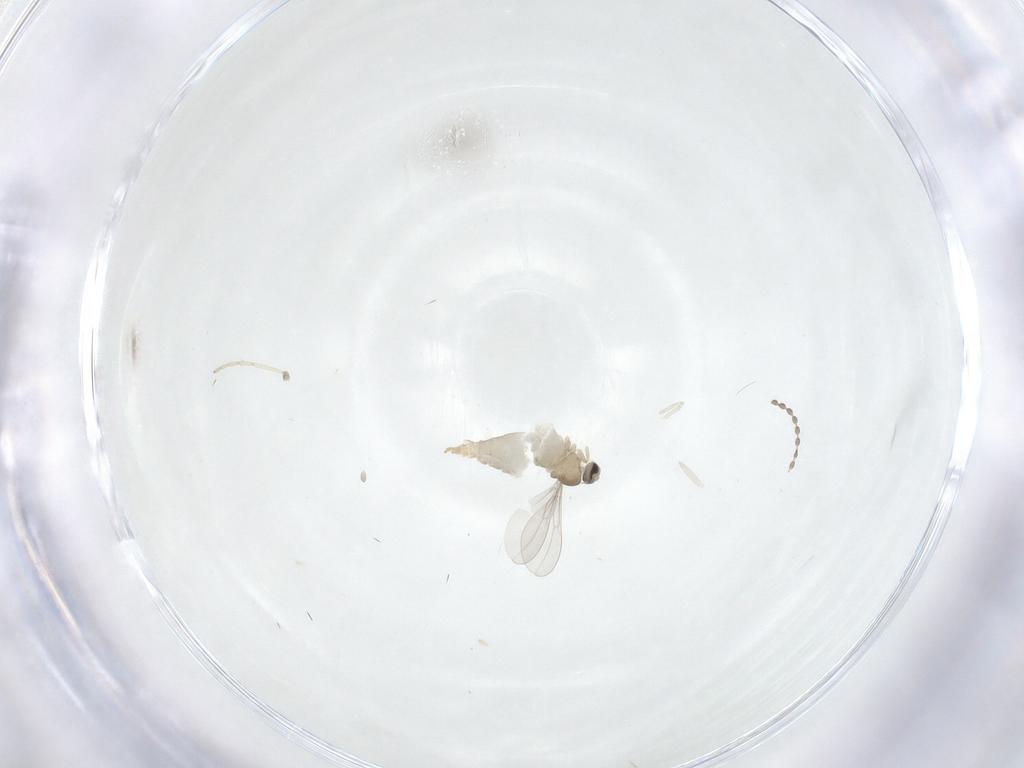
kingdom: Animalia
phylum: Arthropoda
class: Insecta
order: Diptera
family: Cecidomyiidae
